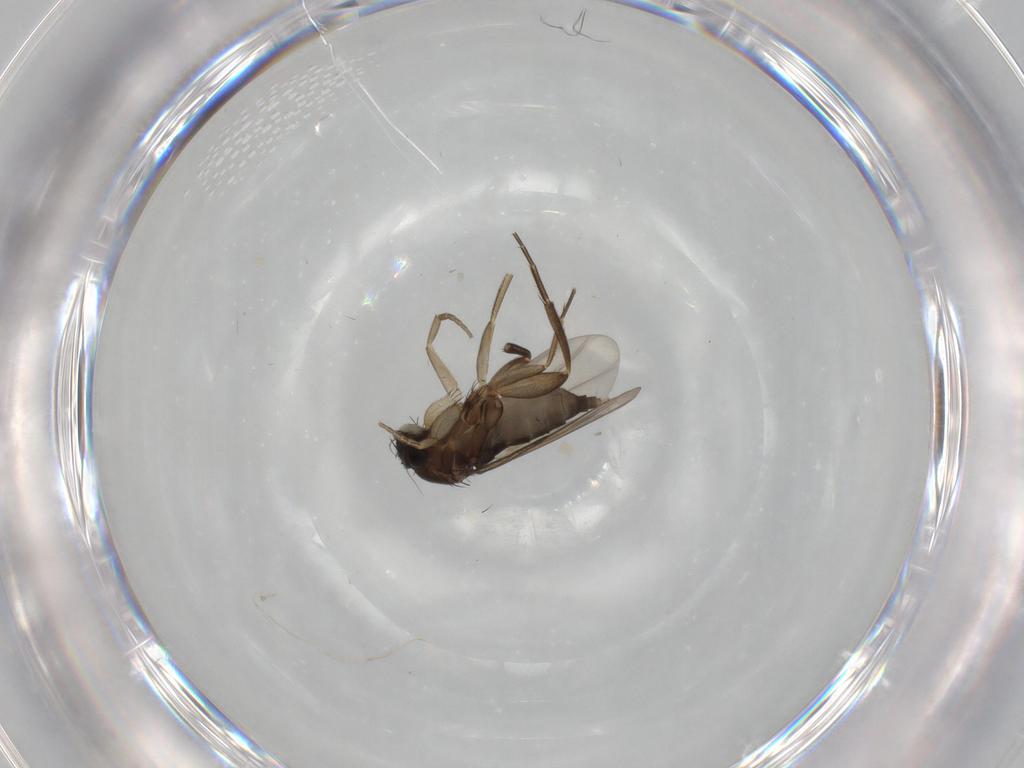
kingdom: Animalia
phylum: Arthropoda
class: Insecta
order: Diptera
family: Phoridae
